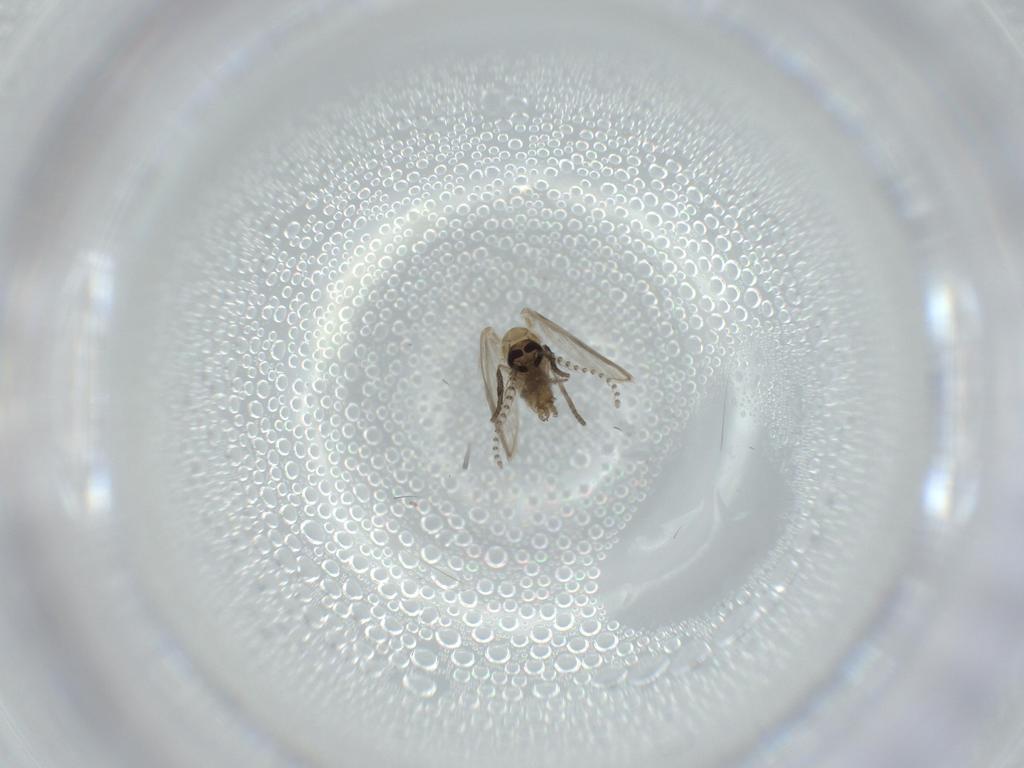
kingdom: Animalia
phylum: Arthropoda
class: Insecta
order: Diptera
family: Psychodidae
